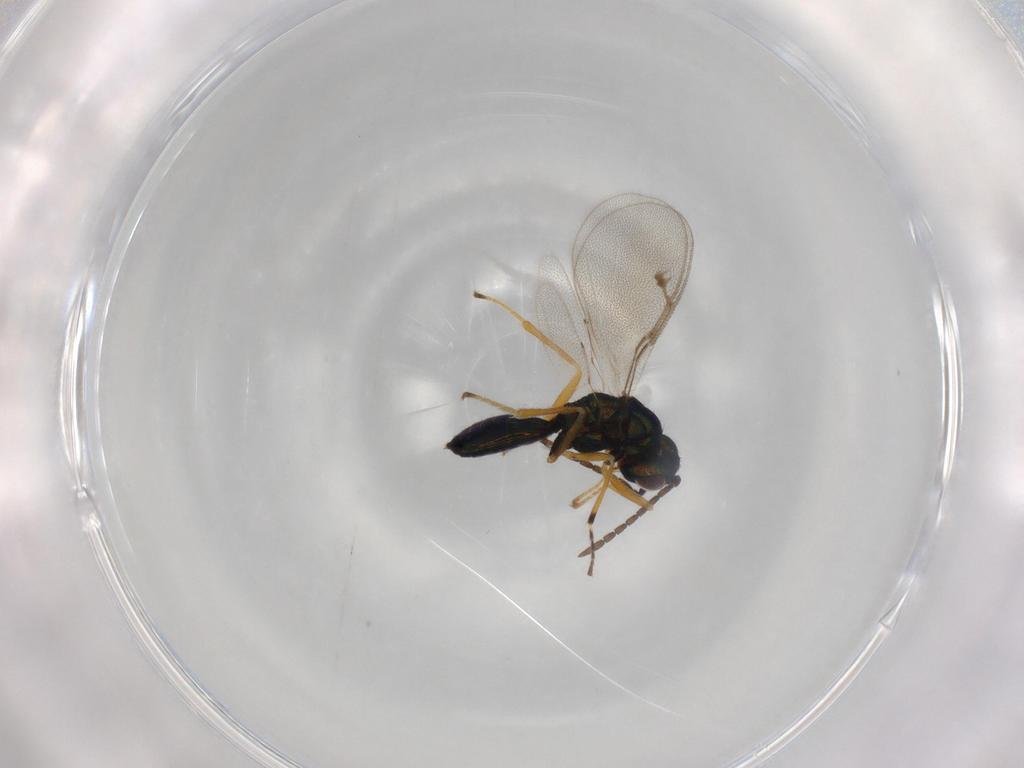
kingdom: Animalia
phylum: Arthropoda
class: Insecta
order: Hymenoptera
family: Pteromalidae
